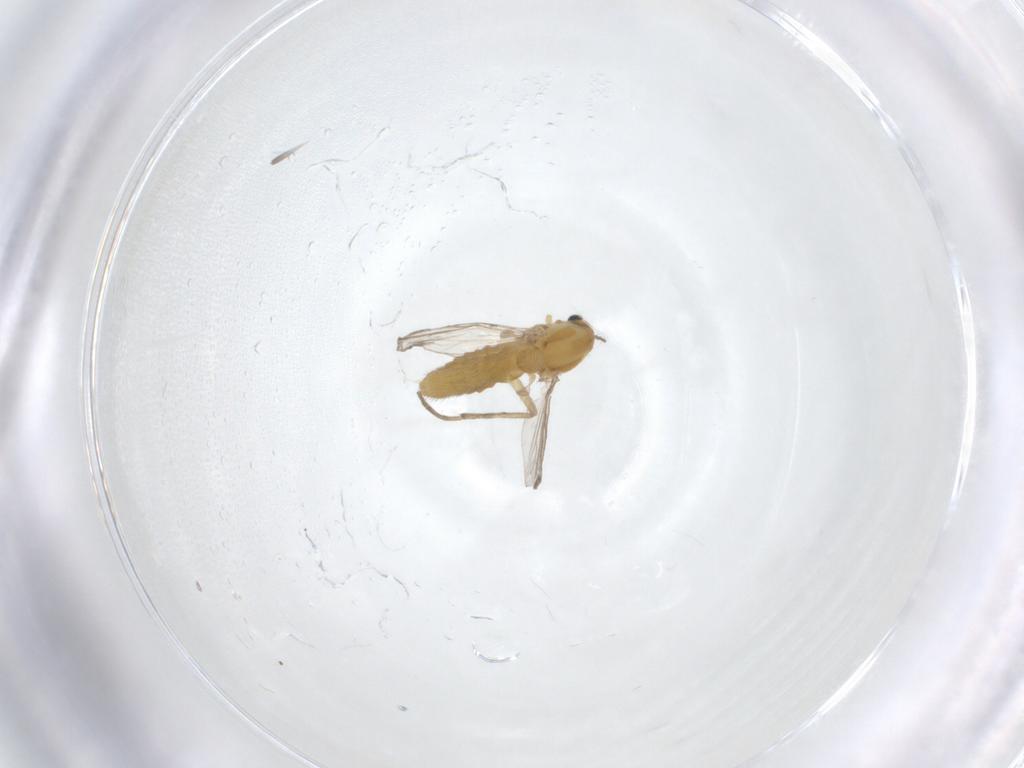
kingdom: Animalia
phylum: Arthropoda
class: Insecta
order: Diptera
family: Chironomidae
